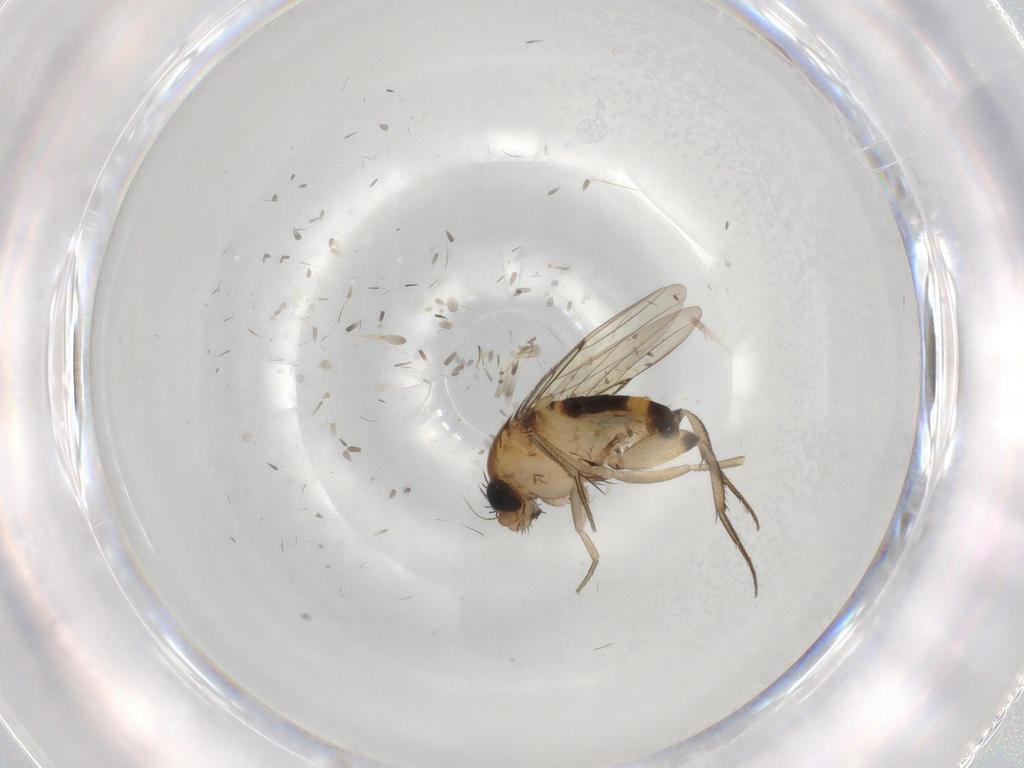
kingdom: Animalia
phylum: Arthropoda
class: Insecta
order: Diptera
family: Phoridae
